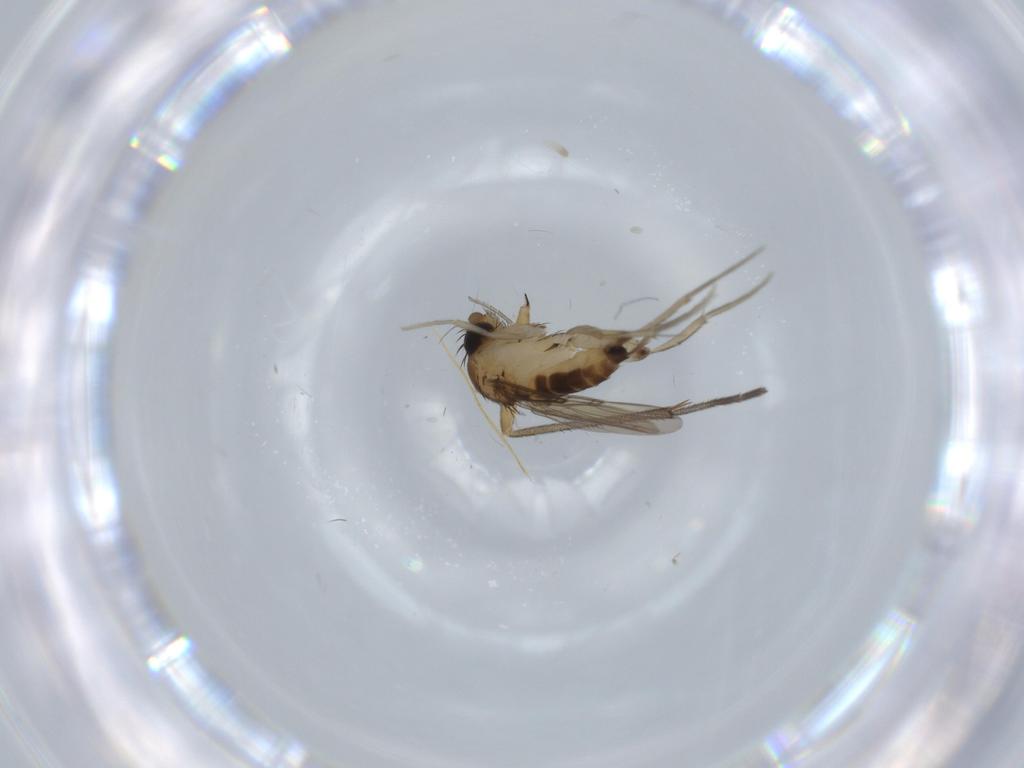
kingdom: Animalia
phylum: Arthropoda
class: Insecta
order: Diptera
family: Phoridae
